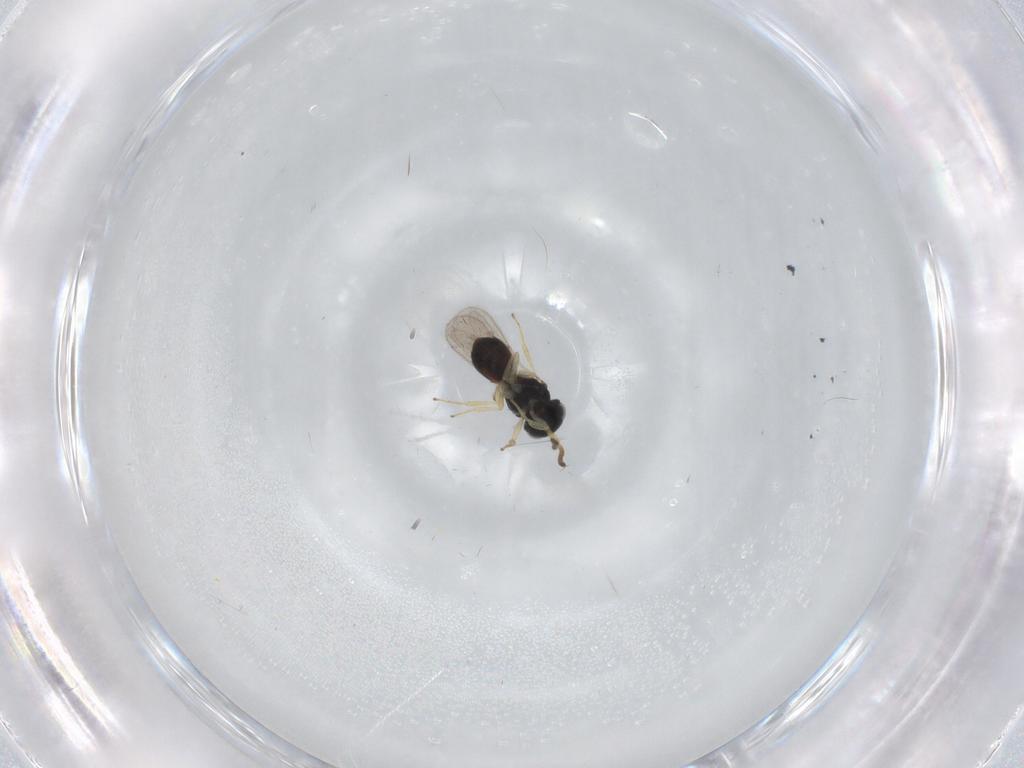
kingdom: Animalia
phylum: Arthropoda
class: Insecta
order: Hymenoptera
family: Scelionidae
